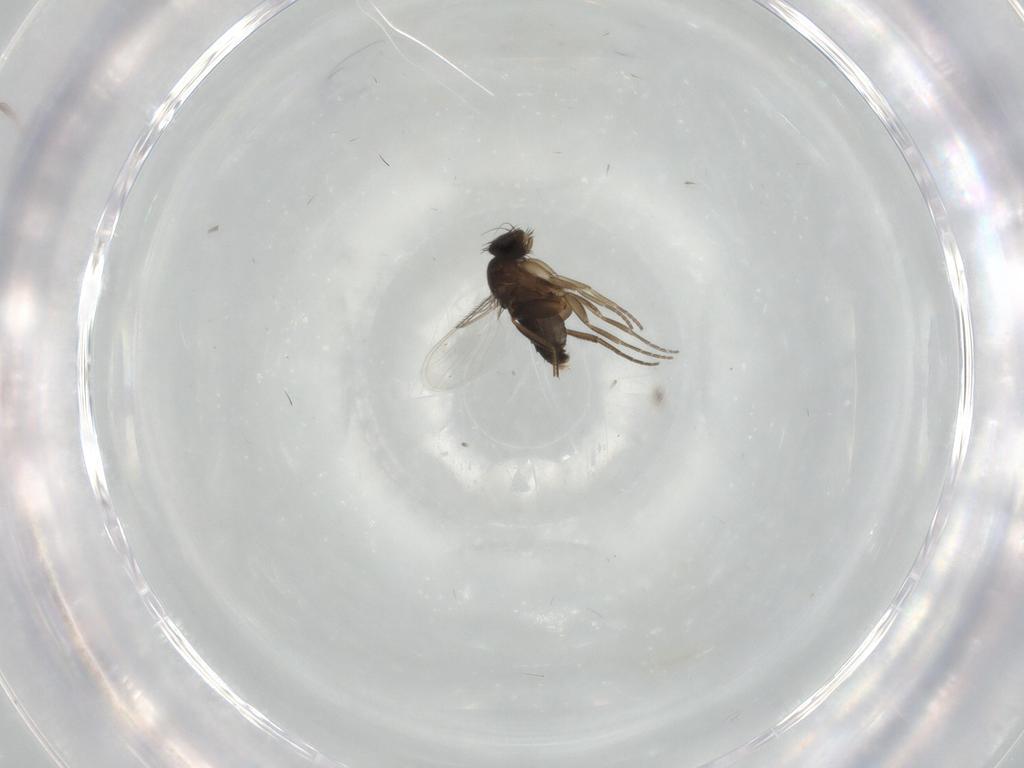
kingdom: Animalia
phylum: Arthropoda
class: Insecta
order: Diptera
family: Phoridae
